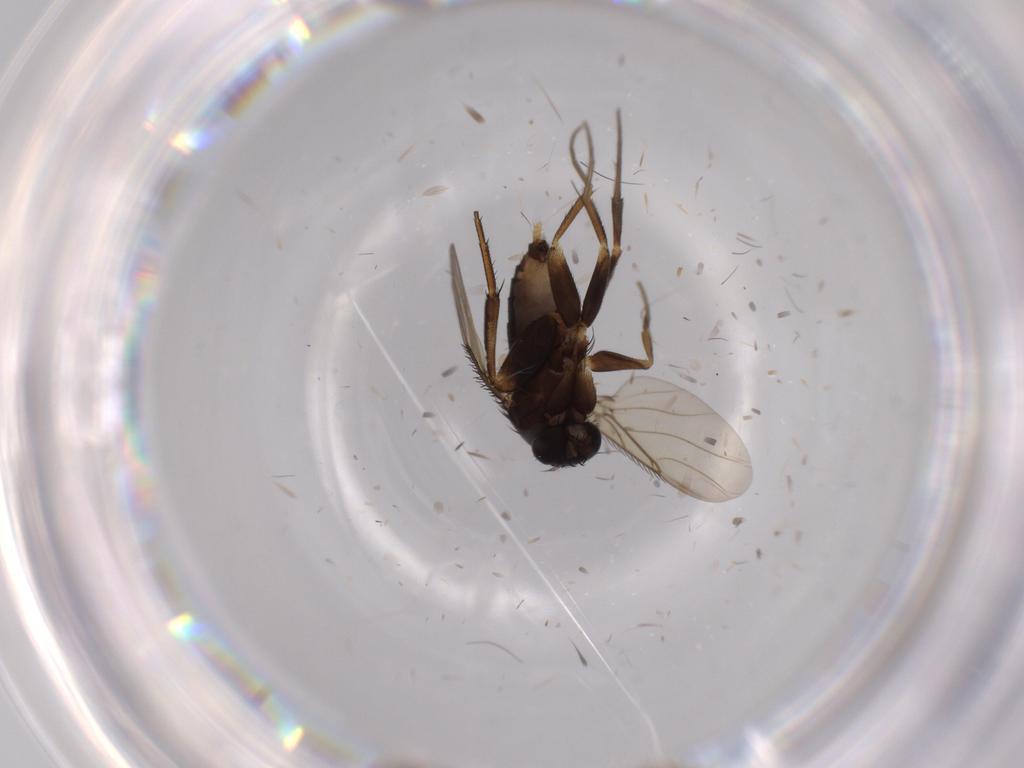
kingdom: Animalia
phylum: Arthropoda
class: Insecta
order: Diptera
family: Phoridae
